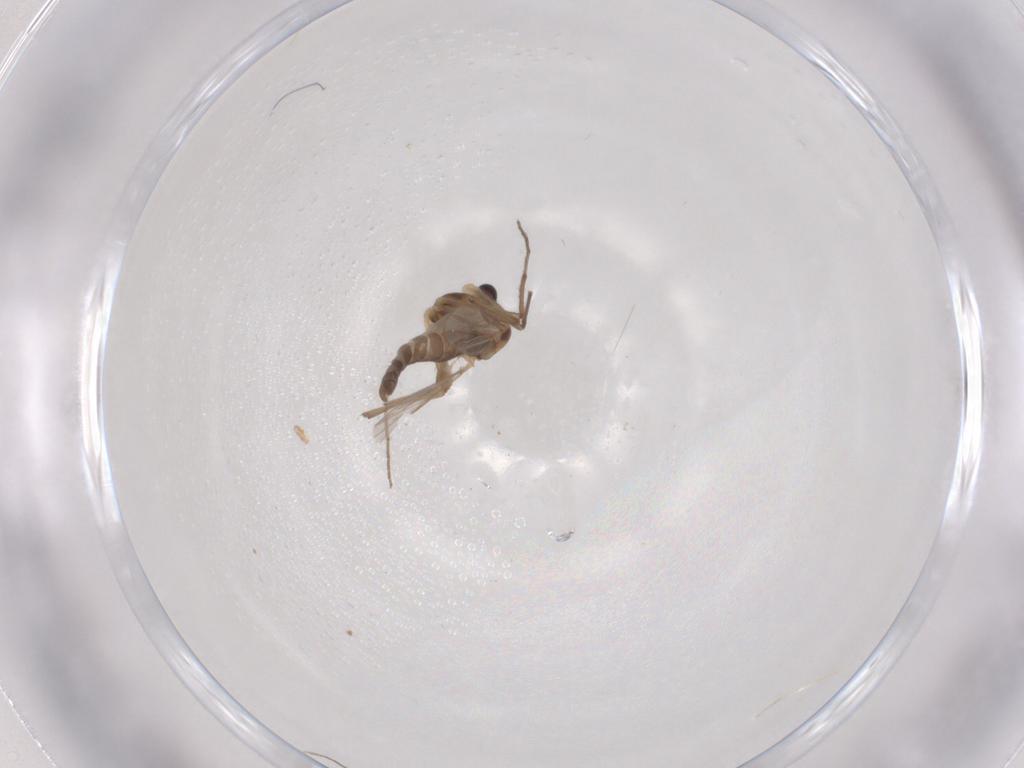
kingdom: Animalia
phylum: Arthropoda
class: Insecta
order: Diptera
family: Chironomidae
